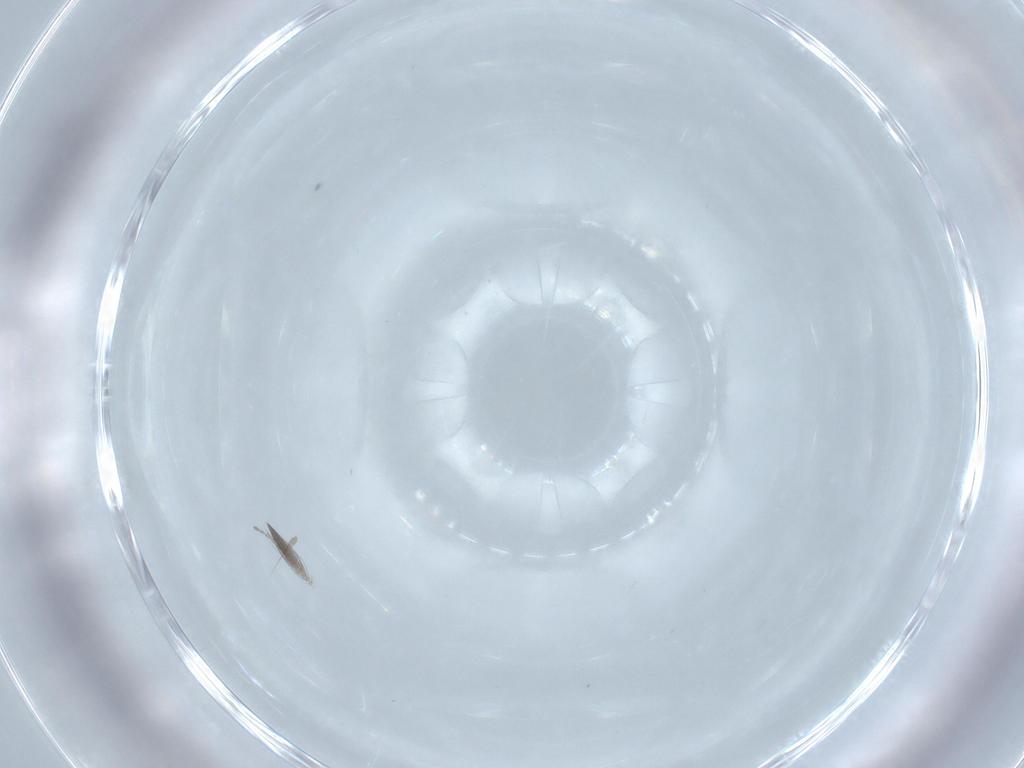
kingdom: Animalia
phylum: Arthropoda
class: Insecta
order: Diptera
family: Ceratopogonidae
